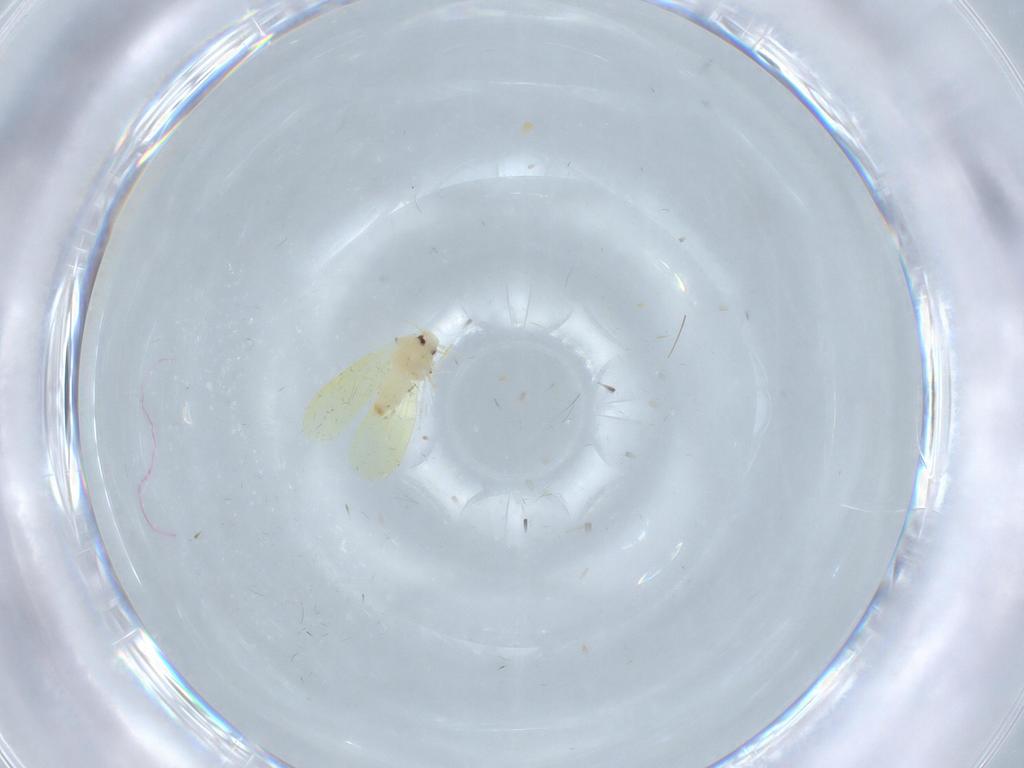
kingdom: Animalia
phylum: Arthropoda
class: Insecta
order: Hemiptera
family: Aleyrodidae
